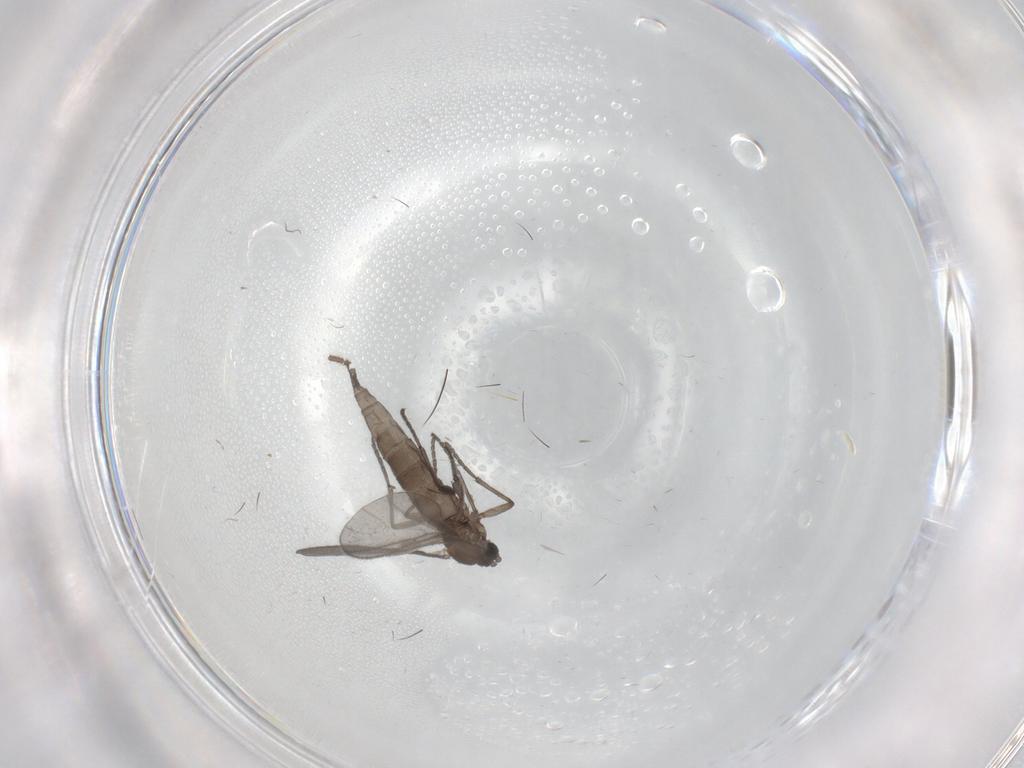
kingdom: Animalia
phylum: Arthropoda
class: Insecta
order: Diptera
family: Sciaridae
